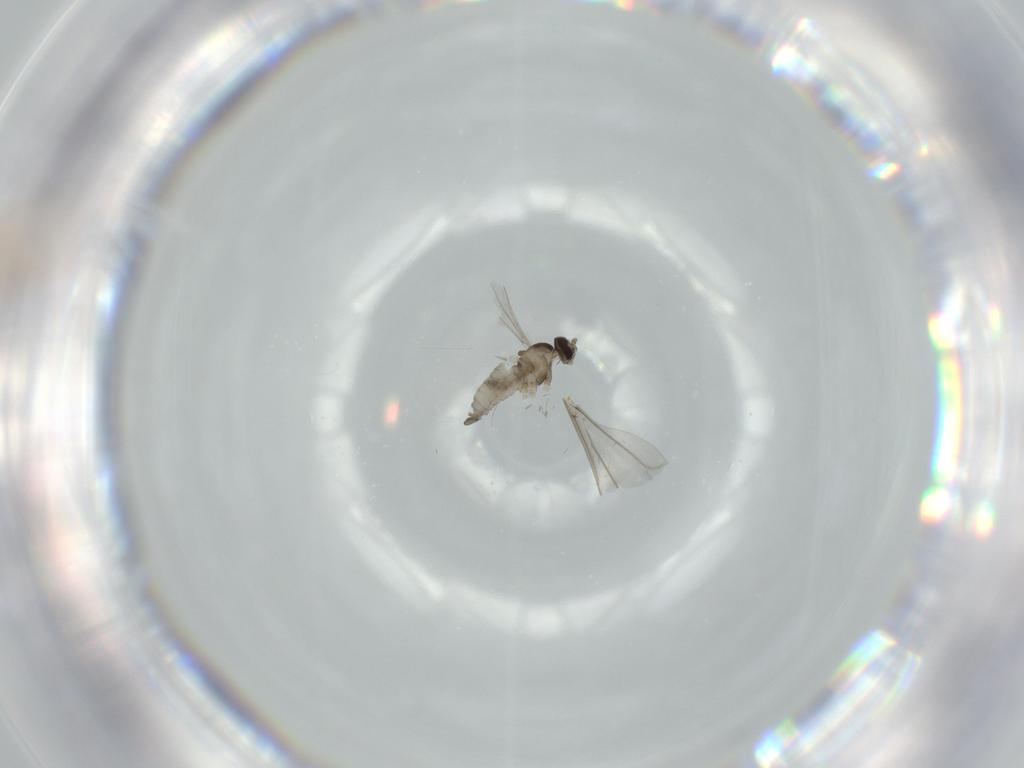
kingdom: Animalia
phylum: Arthropoda
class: Insecta
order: Diptera
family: Cecidomyiidae
